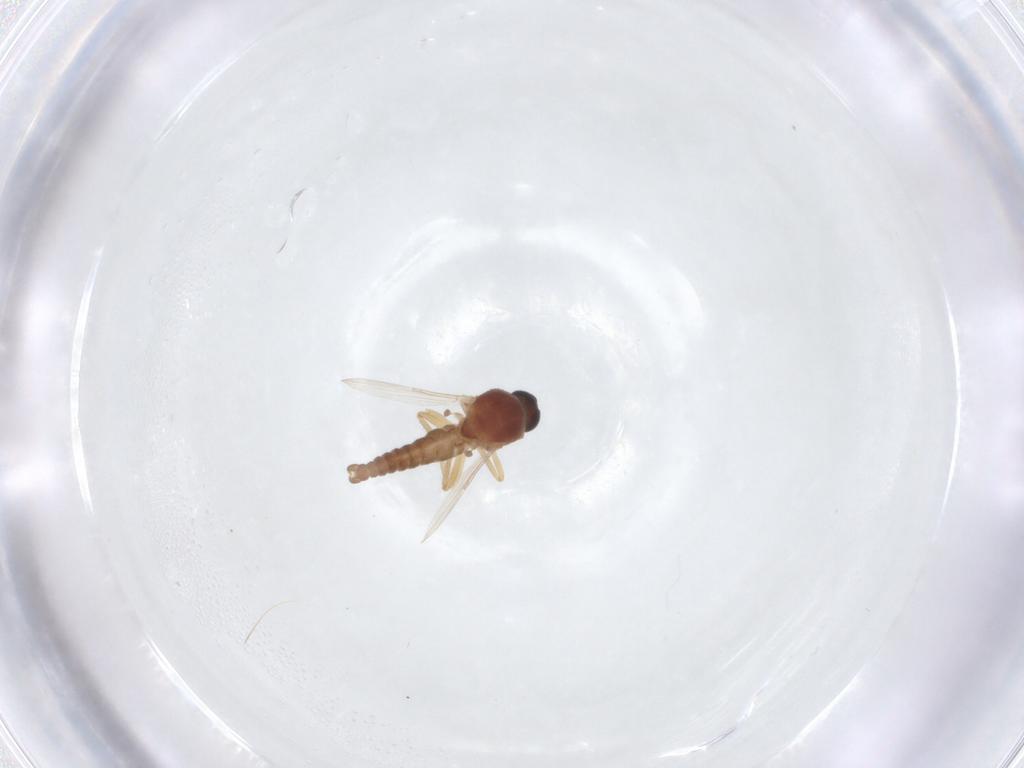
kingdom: Animalia
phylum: Arthropoda
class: Insecta
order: Diptera
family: Ceratopogonidae
